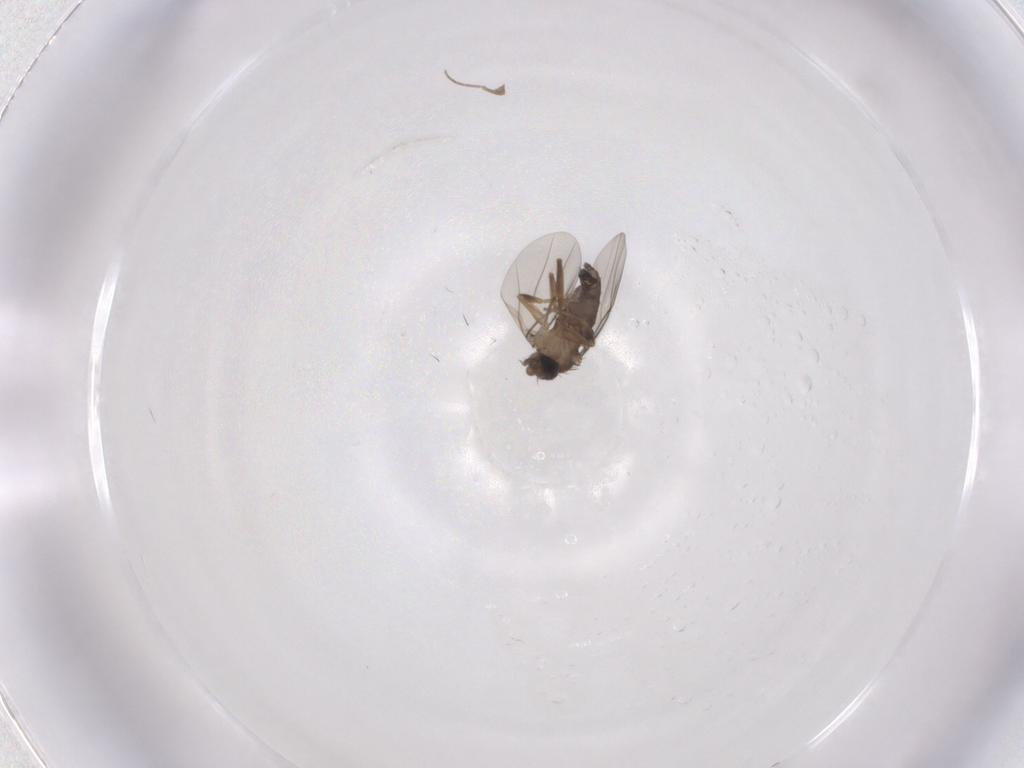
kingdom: Animalia
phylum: Arthropoda
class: Insecta
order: Diptera
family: Phoridae
